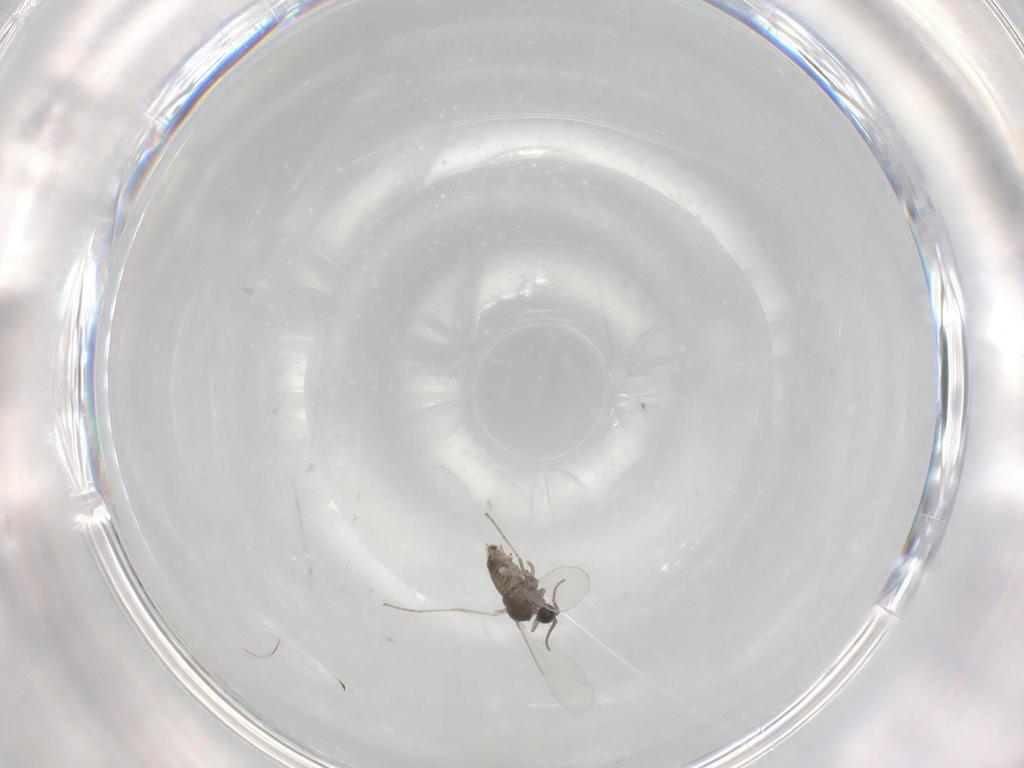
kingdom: Animalia
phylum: Arthropoda
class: Insecta
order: Diptera
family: Cecidomyiidae
